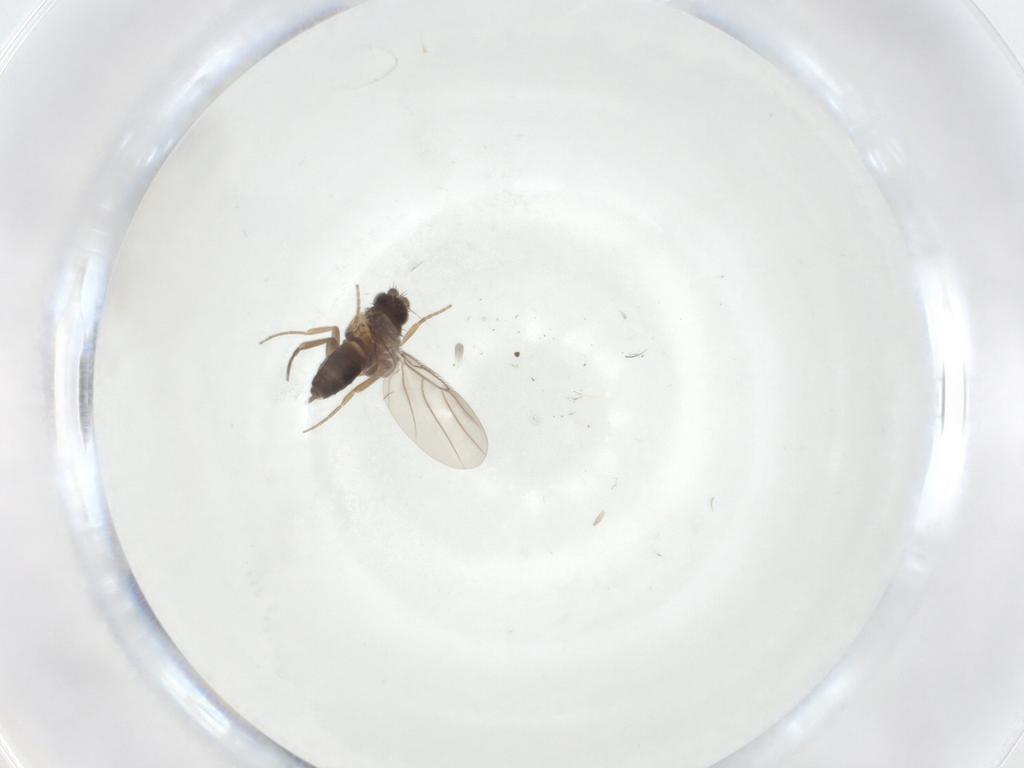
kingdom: Animalia
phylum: Arthropoda
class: Insecta
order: Diptera
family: Phoridae
